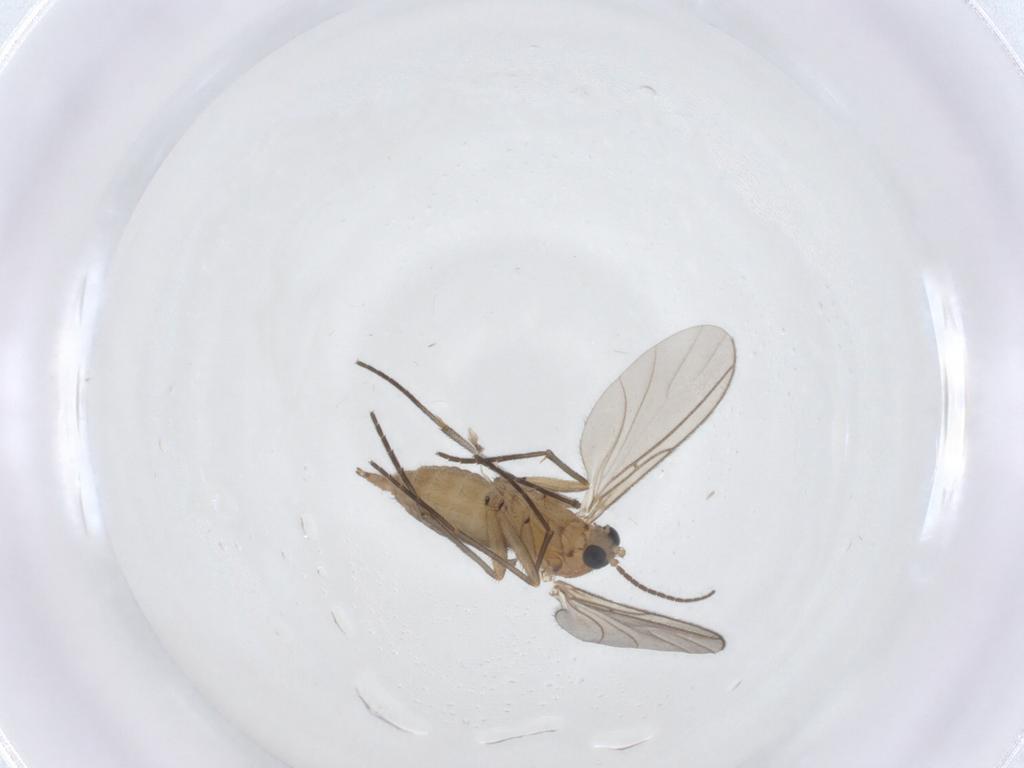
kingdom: Animalia
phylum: Arthropoda
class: Insecta
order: Diptera
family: Sciaridae
